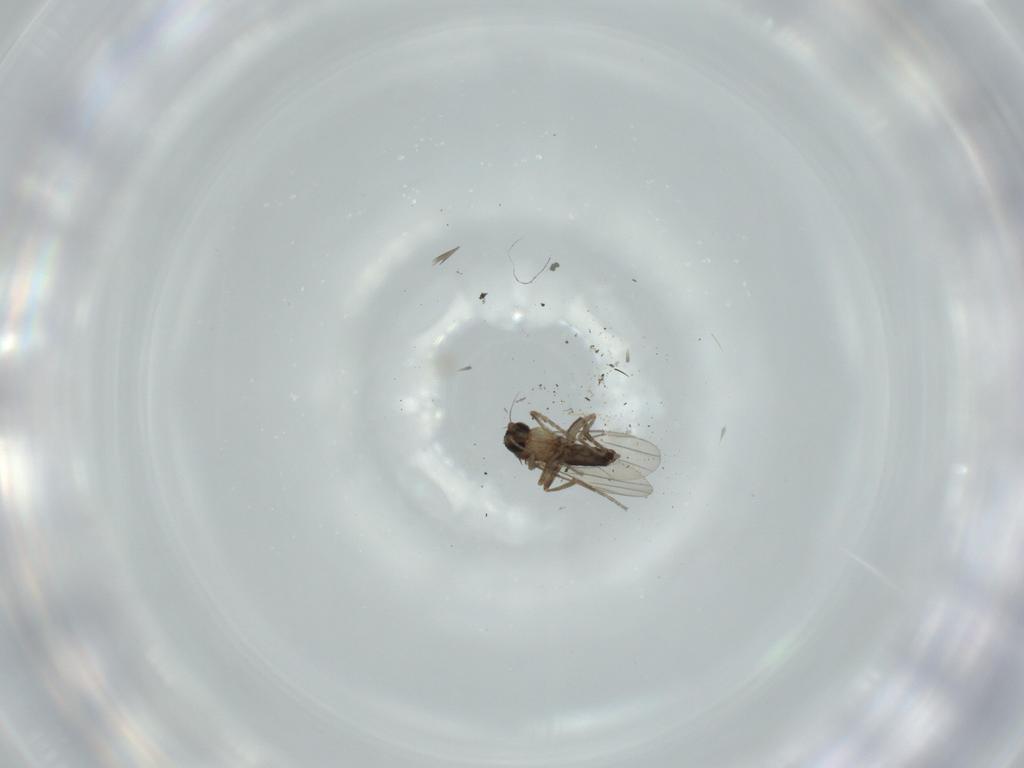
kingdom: Animalia
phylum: Arthropoda
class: Insecta
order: Diptera
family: Phoridae
